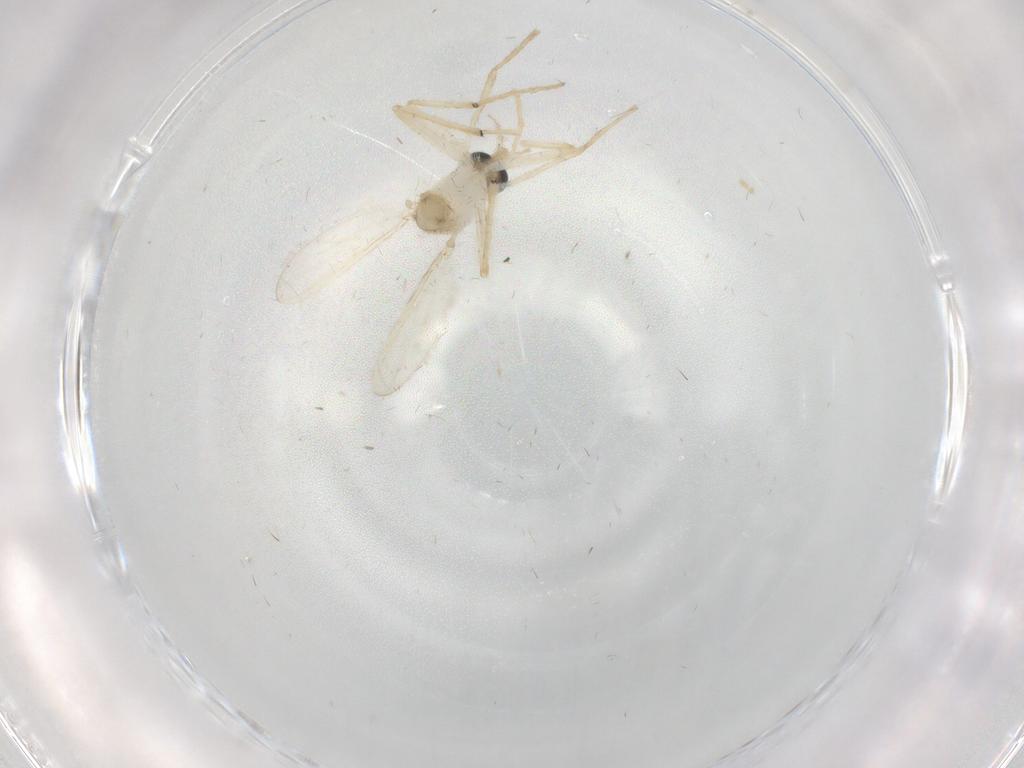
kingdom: Animalia
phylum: Arthropoda
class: Insecta
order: Diptera
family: Chironomidae
